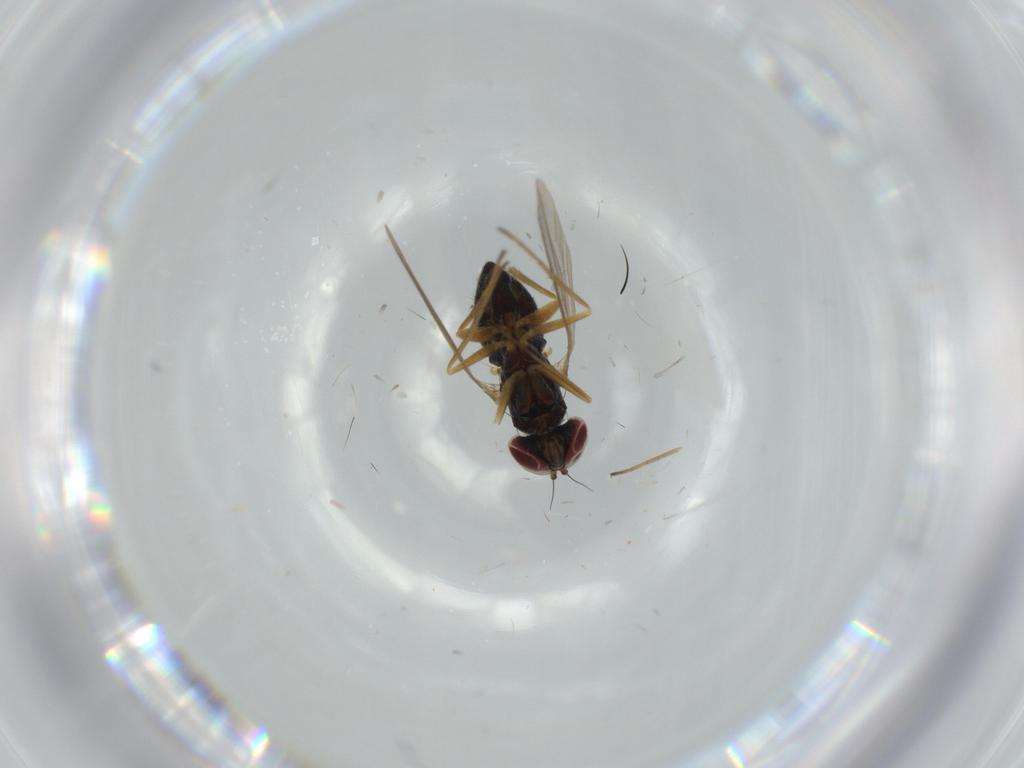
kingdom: Animalia
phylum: Arthropoda
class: Insecta
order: Diptera
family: Dolichopodidae
